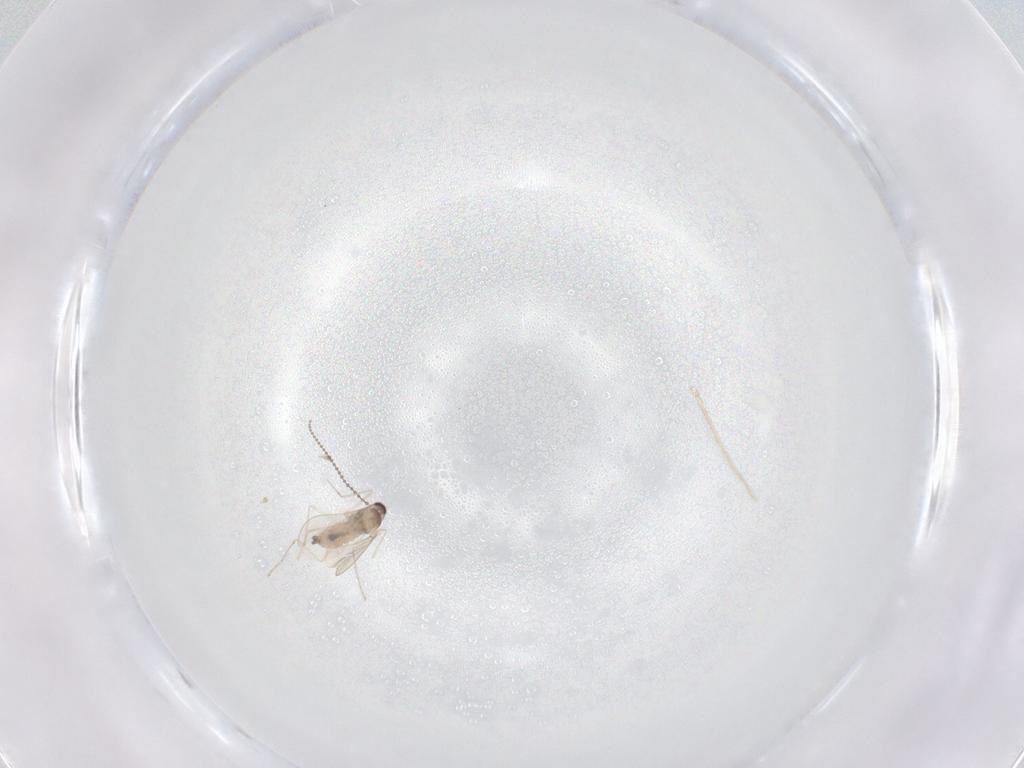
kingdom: Animalia
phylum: Arthropoda
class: Insecta
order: Diptera
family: Cecidomyiidae
